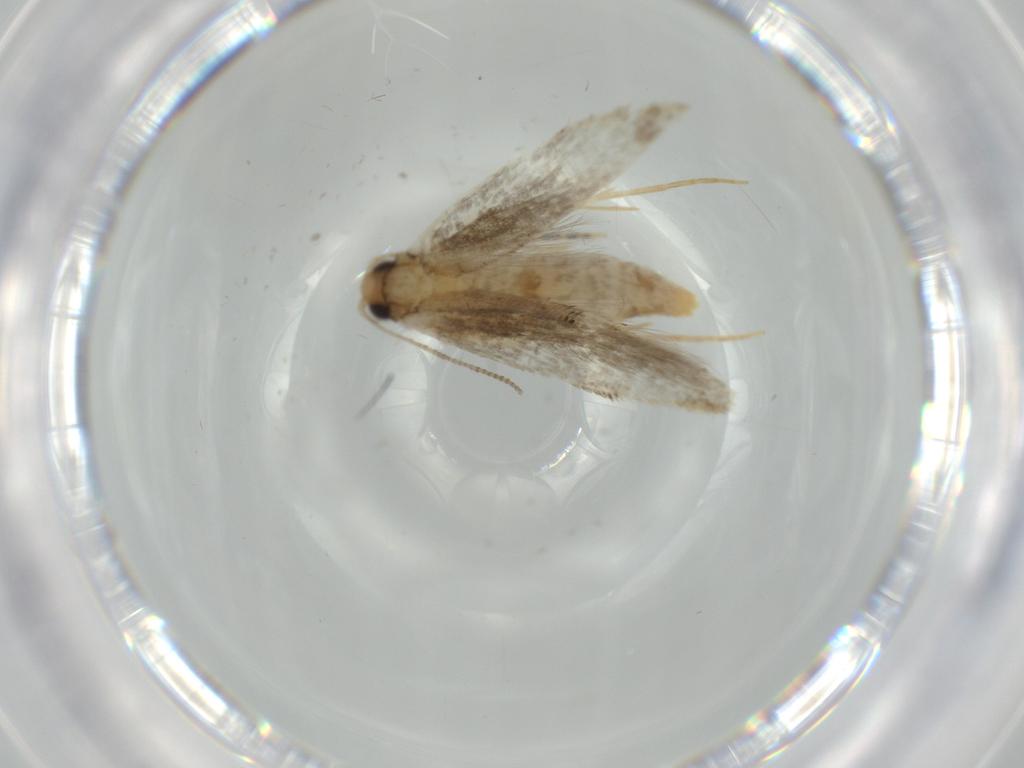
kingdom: Animalia
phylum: Arthropoda
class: Insecta
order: Lepidoptera
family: Tineidae
